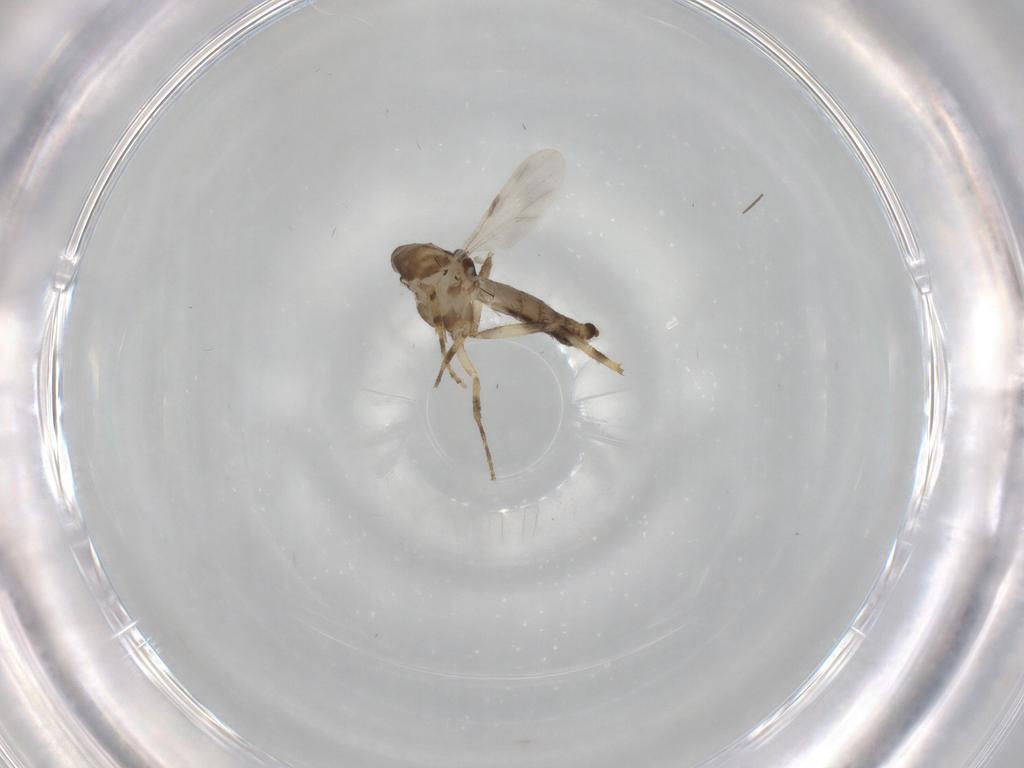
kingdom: Animalia
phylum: Arthropoda
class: Insecta
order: Diptera
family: Ceratopogonidae
